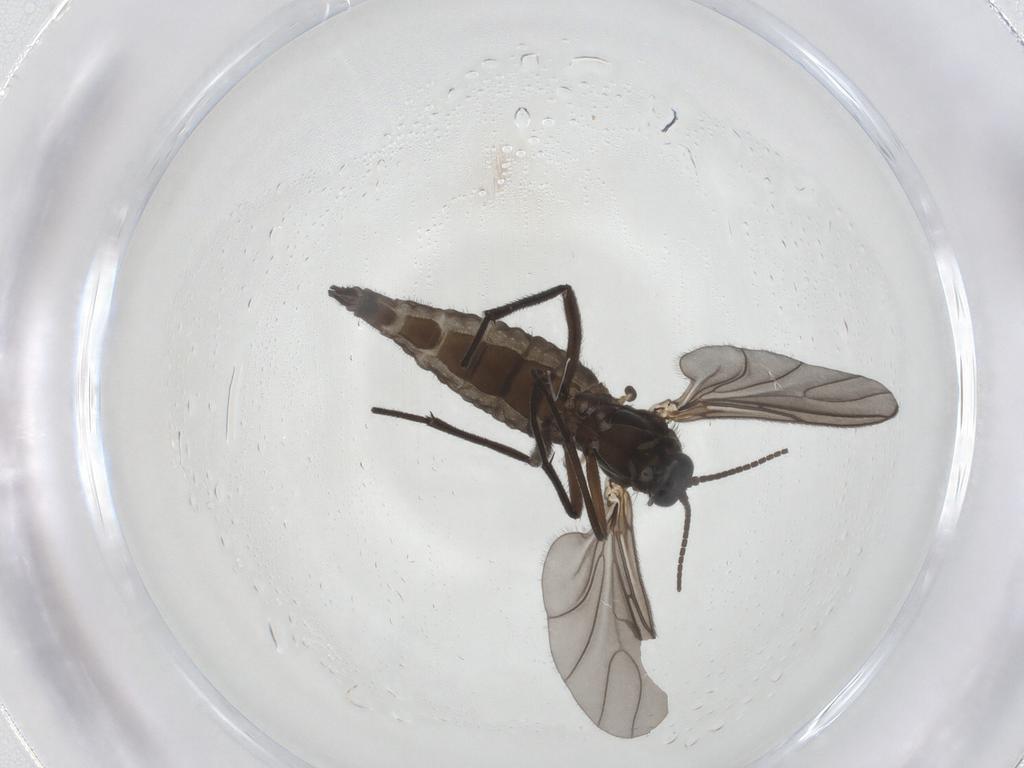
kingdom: Animalia
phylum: Arthropoda
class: Insecta
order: Diptera
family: Sciaridae
